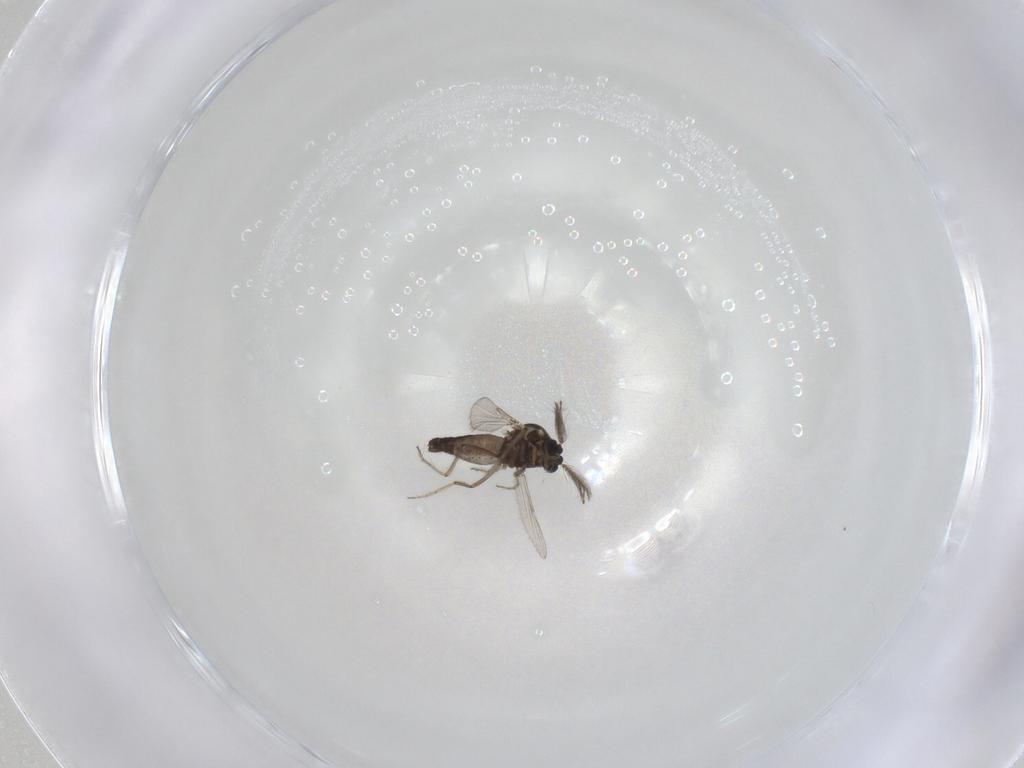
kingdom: Animalia
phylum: Arthropoda
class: Insecta
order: Diptera
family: Ceratopogonidae
